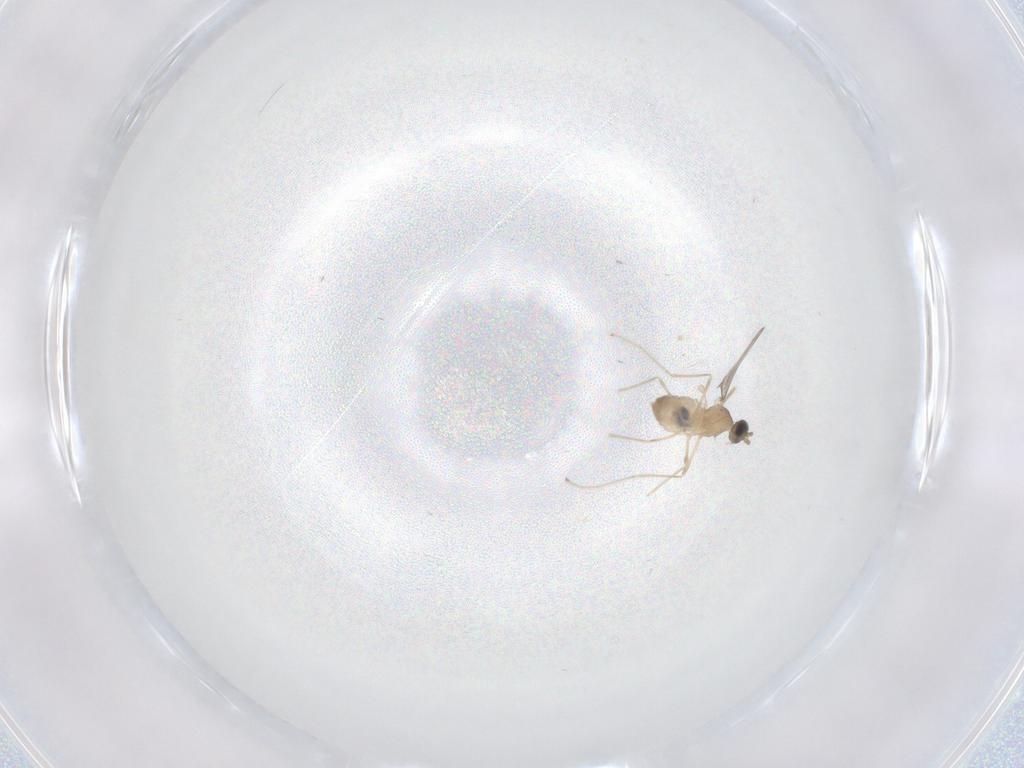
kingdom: Animalia
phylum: Arthropoda
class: Insecta
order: Diptera
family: Cecidomyiidae
